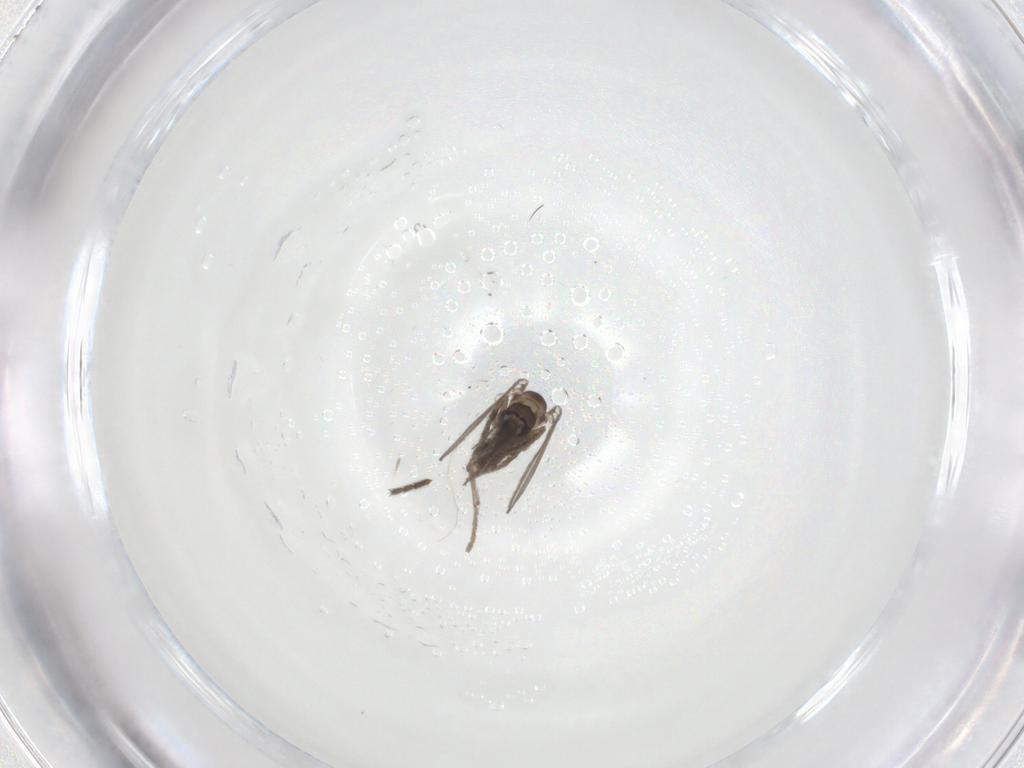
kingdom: Animalia
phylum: Arthropoda
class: Insecta
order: Diptera
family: Psychodidae
